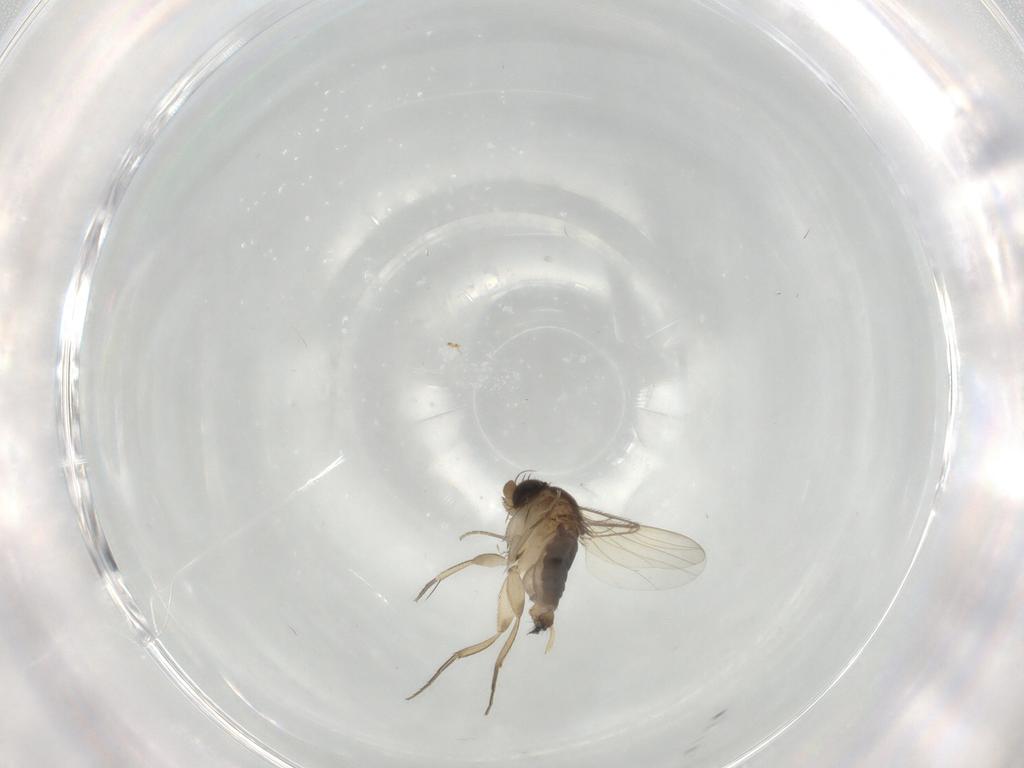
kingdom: Animalia
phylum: Arthropoda
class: Insecta
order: Diptera
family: Phoridae
